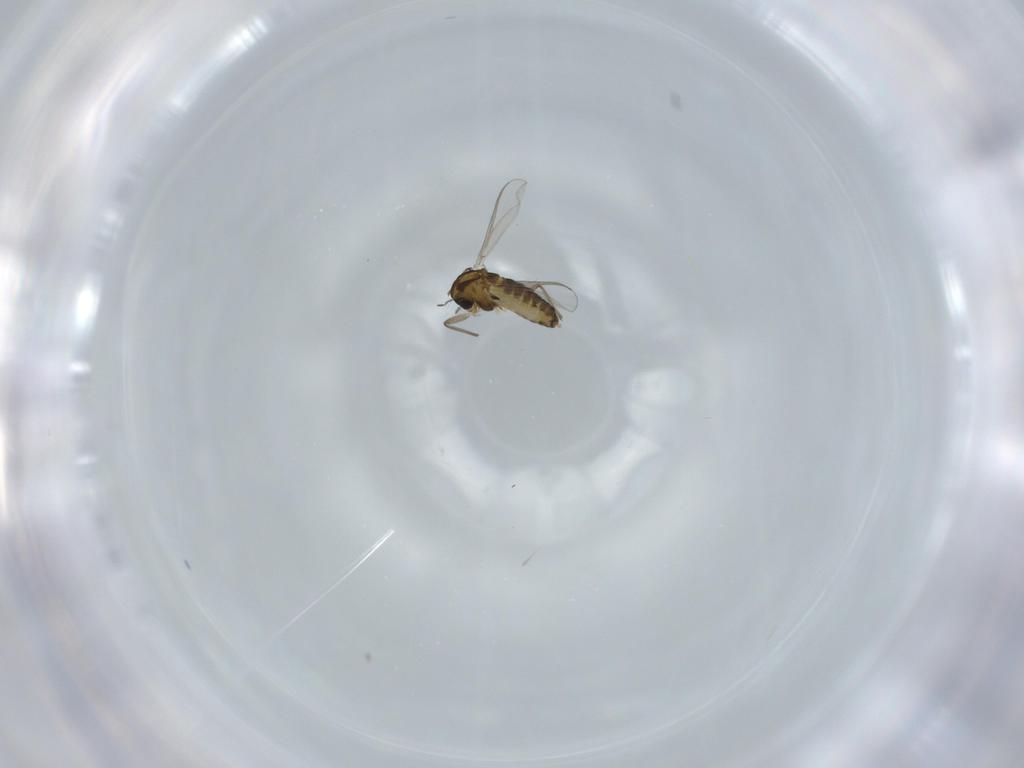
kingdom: Animalia
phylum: Arthropoda
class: Insecta
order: Diptera
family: Chironomidae
